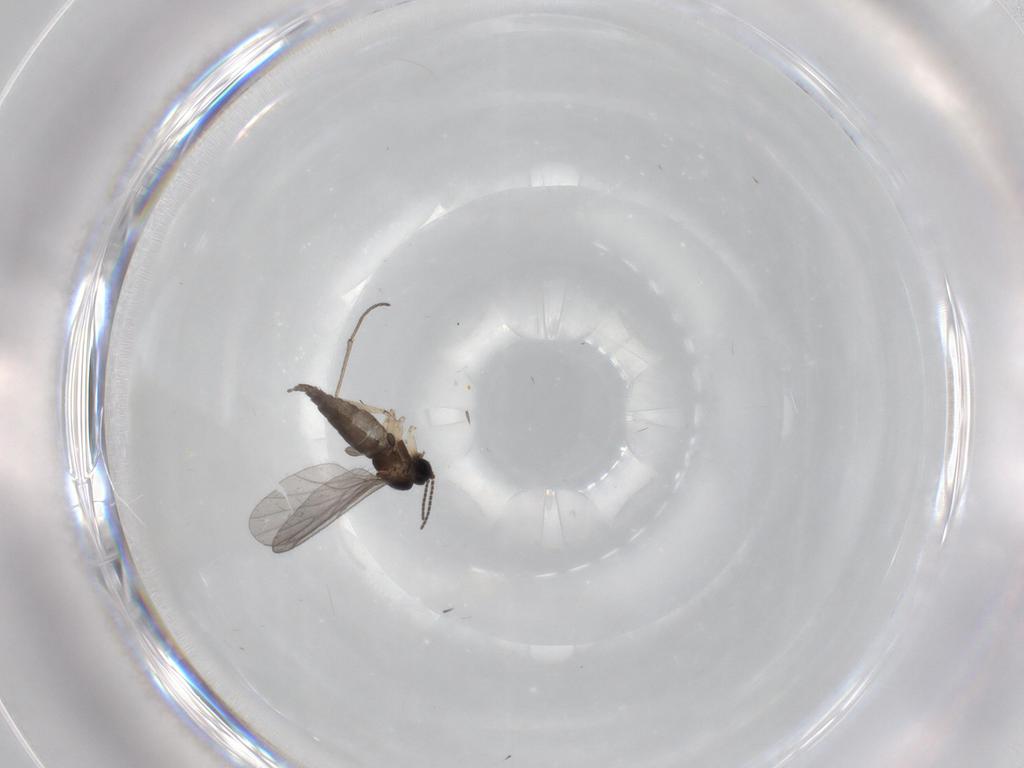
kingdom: Animalia
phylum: Arthropoda
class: Insecta
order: Diptera
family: Sciaridae
